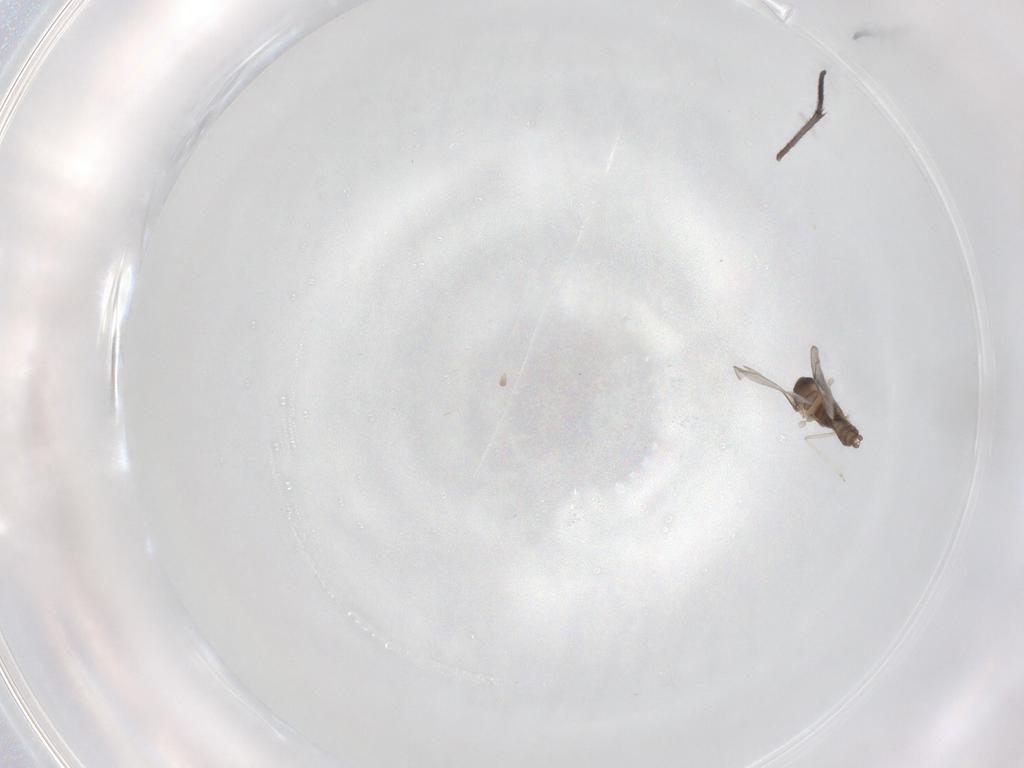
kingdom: Animalia
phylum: Arthropoda
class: Insecta
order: Diptera
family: Cecidomyiidae
